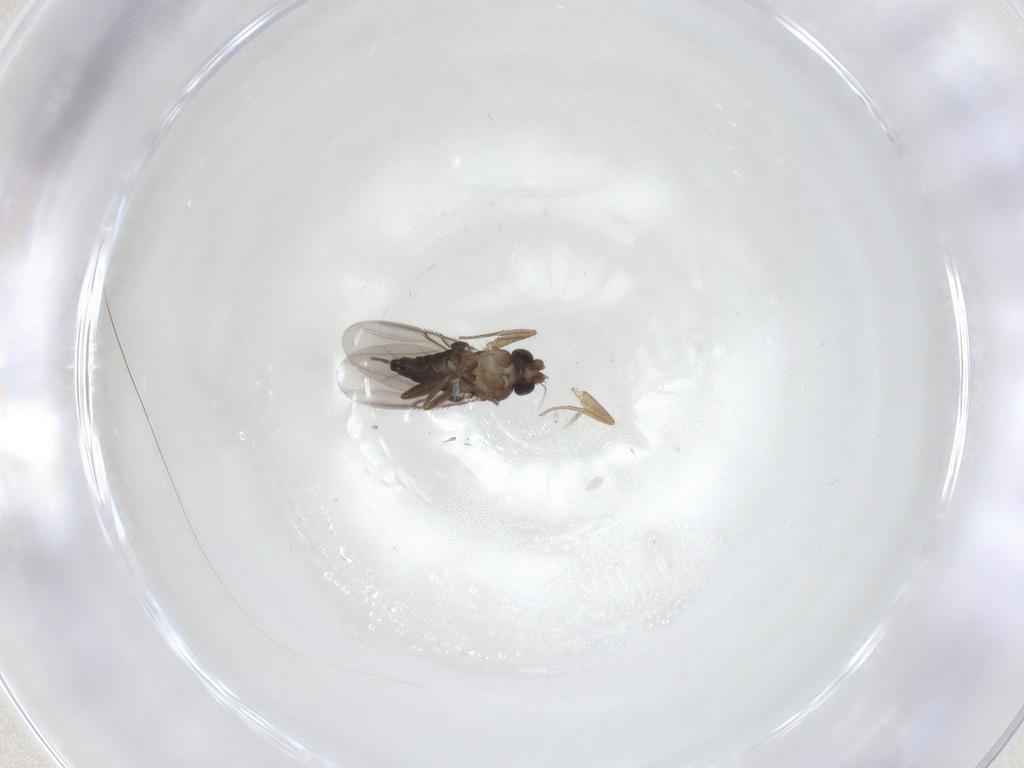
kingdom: Animalia
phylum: Arthropoda
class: Insecta
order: Diptera
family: Phoridae
